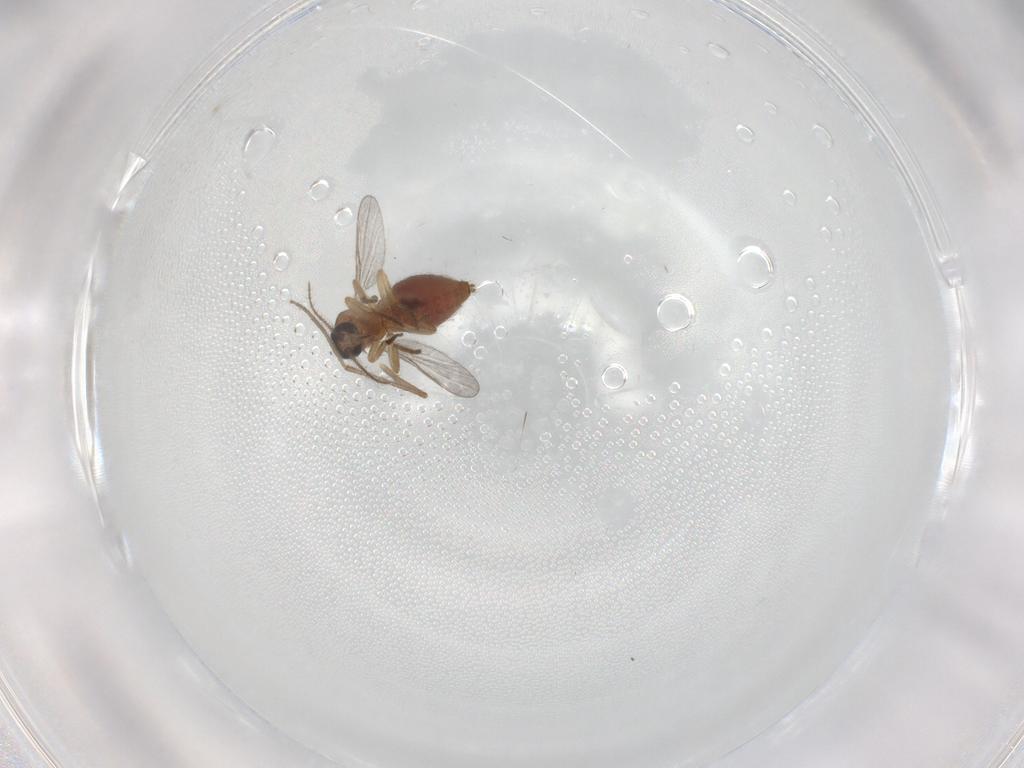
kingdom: Animalia
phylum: Arthropoda
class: Insecta
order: Diptera
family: Ceratopogonidae
